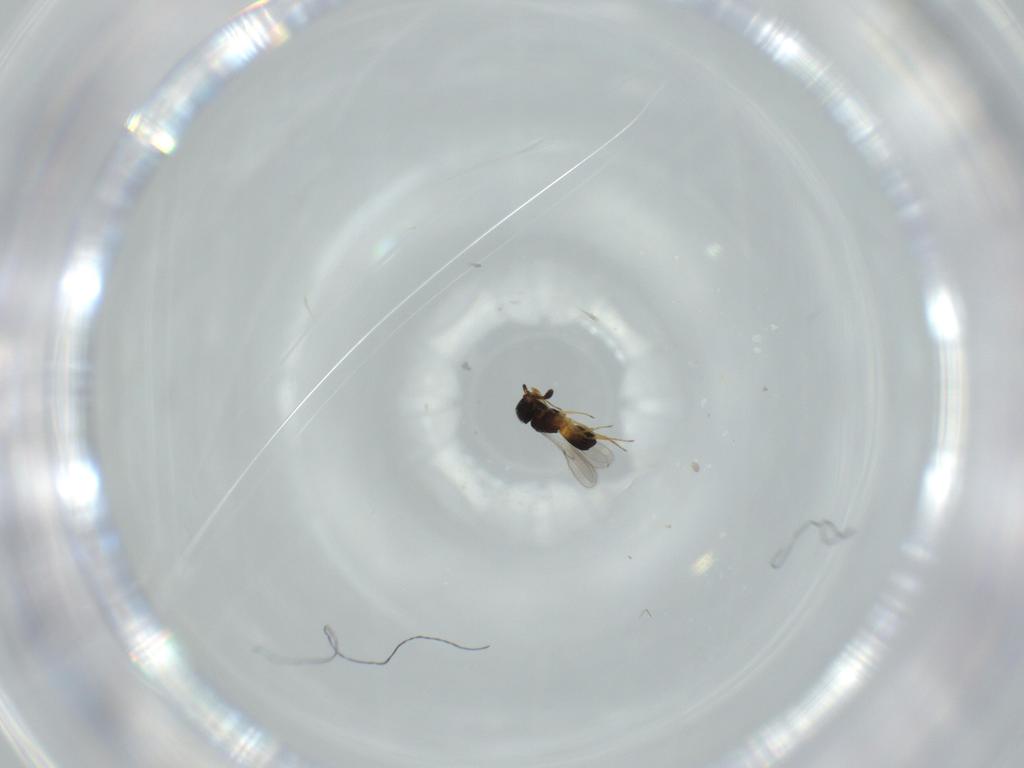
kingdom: Animalia
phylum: Arthropoda
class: Insecta
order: Hymenoptera
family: Scelionidae
